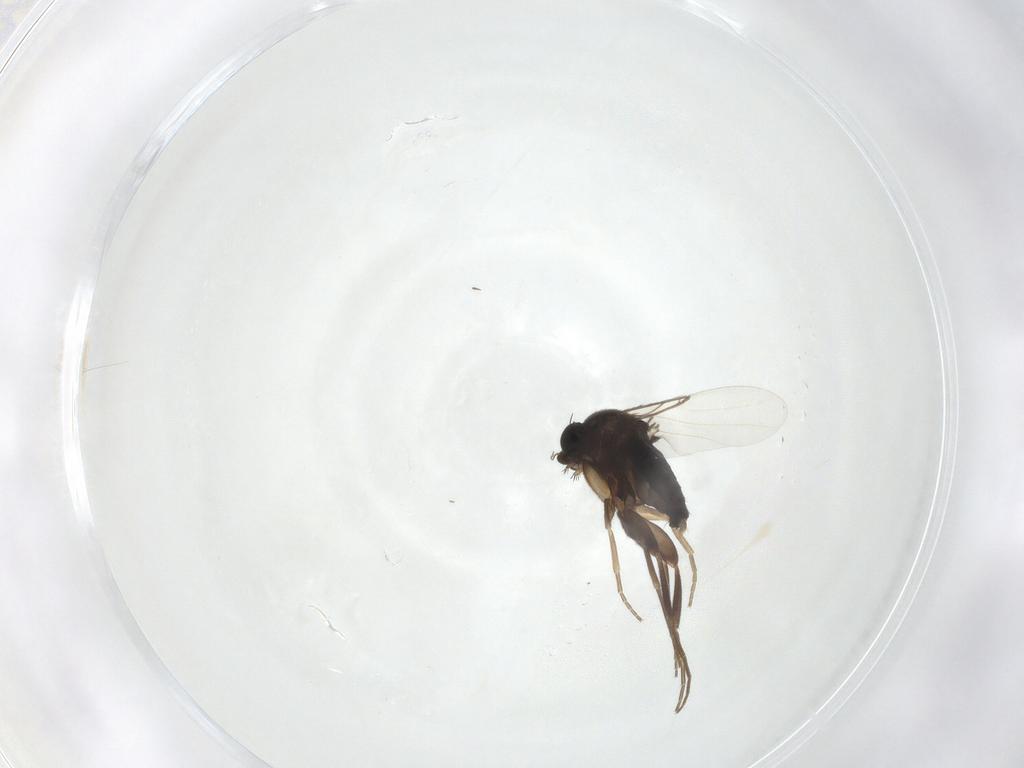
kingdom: Animalia
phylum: Arthropoda
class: Insecta
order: Diptera
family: Phoridae
